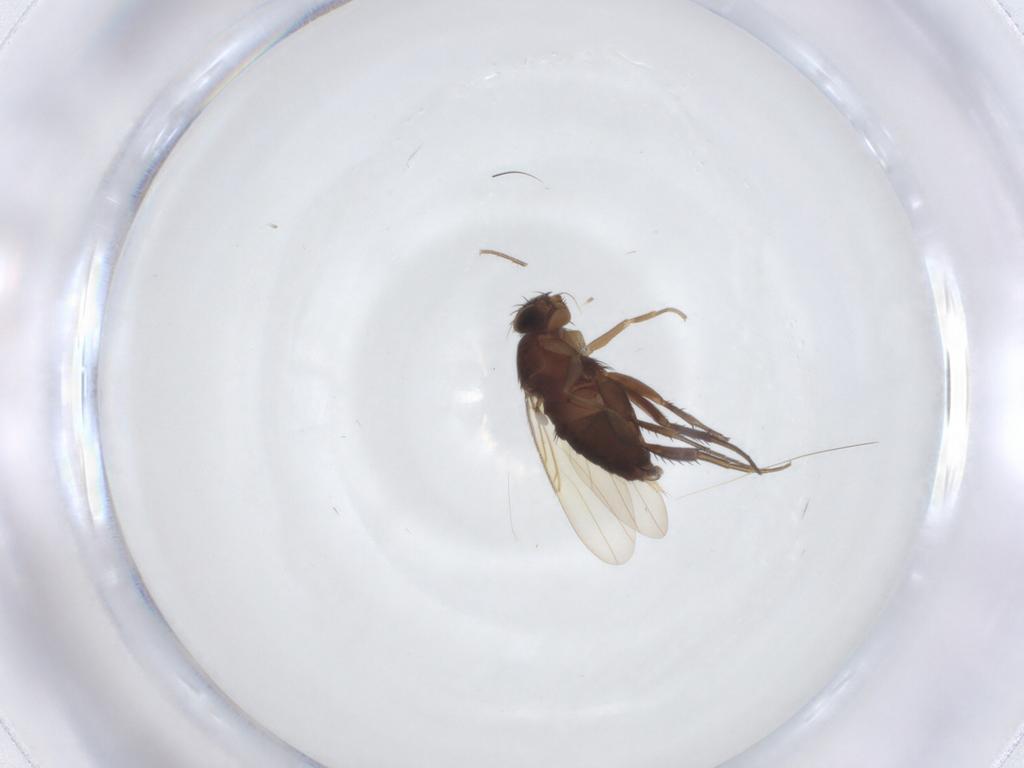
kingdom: Animalia
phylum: Arthropoda
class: Insecta
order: Diptera
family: Phoridae
